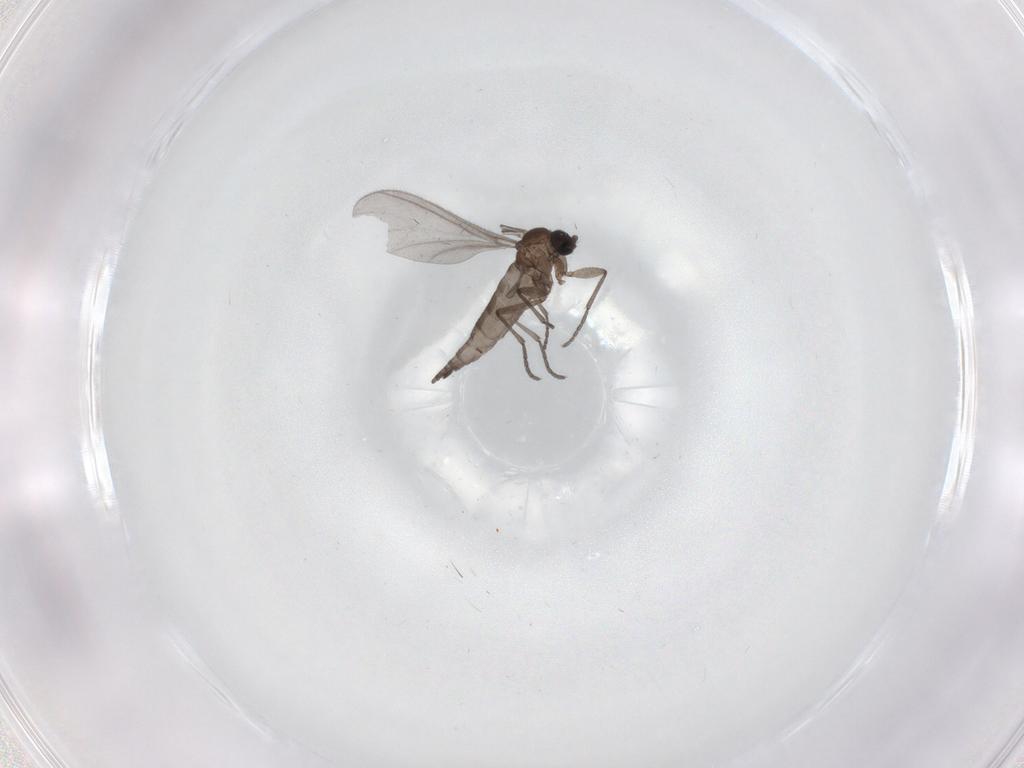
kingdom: Animalia
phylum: Arthropoda
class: Insecta
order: Diptera
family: Sciaridae
